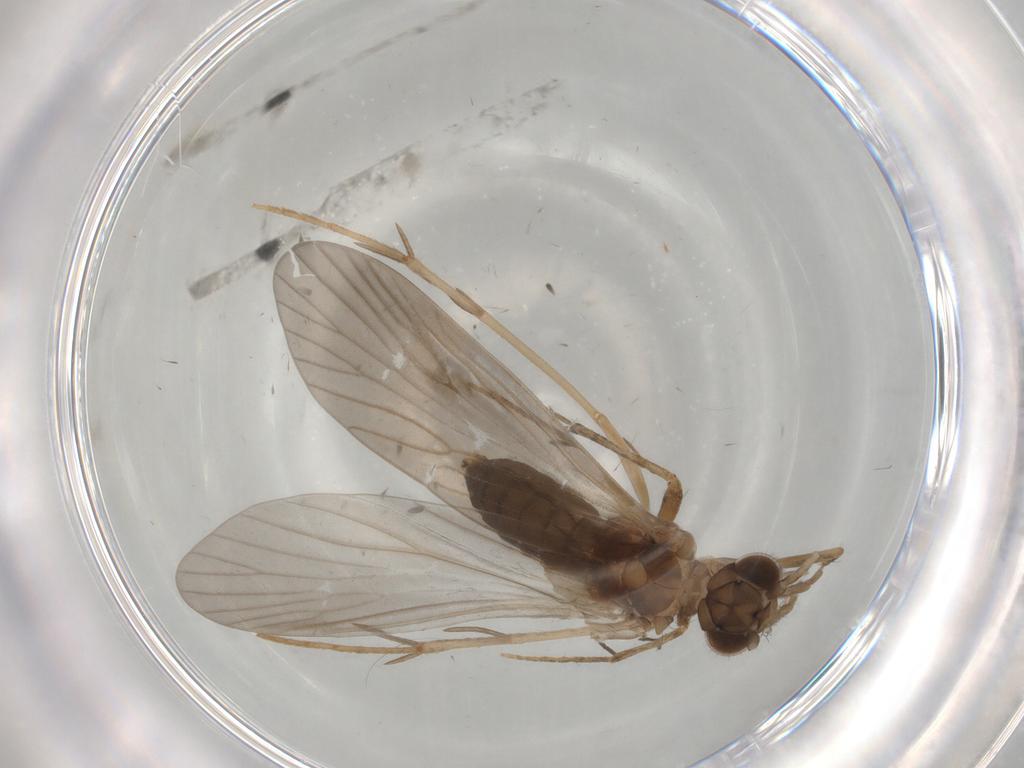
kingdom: Animalia
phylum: Arthropoda
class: Insecta
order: Trichoptera
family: Philopotamidae
